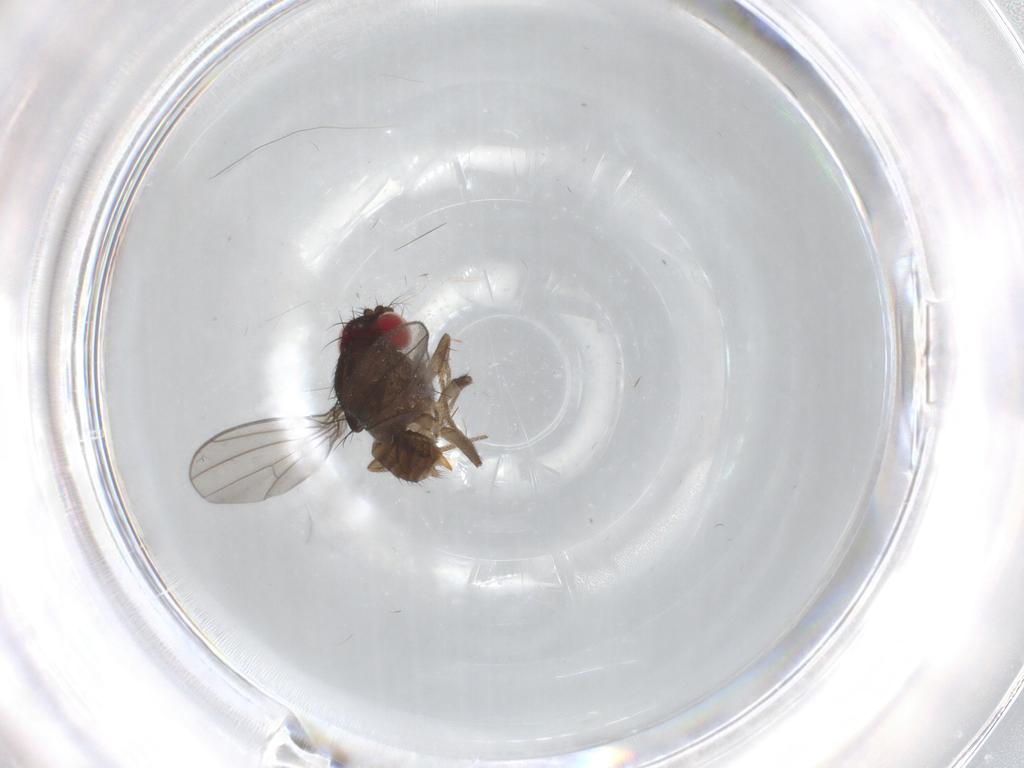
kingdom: Animalia
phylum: Arthropoda
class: Insecta
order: Diptera
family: Drosophilidae
